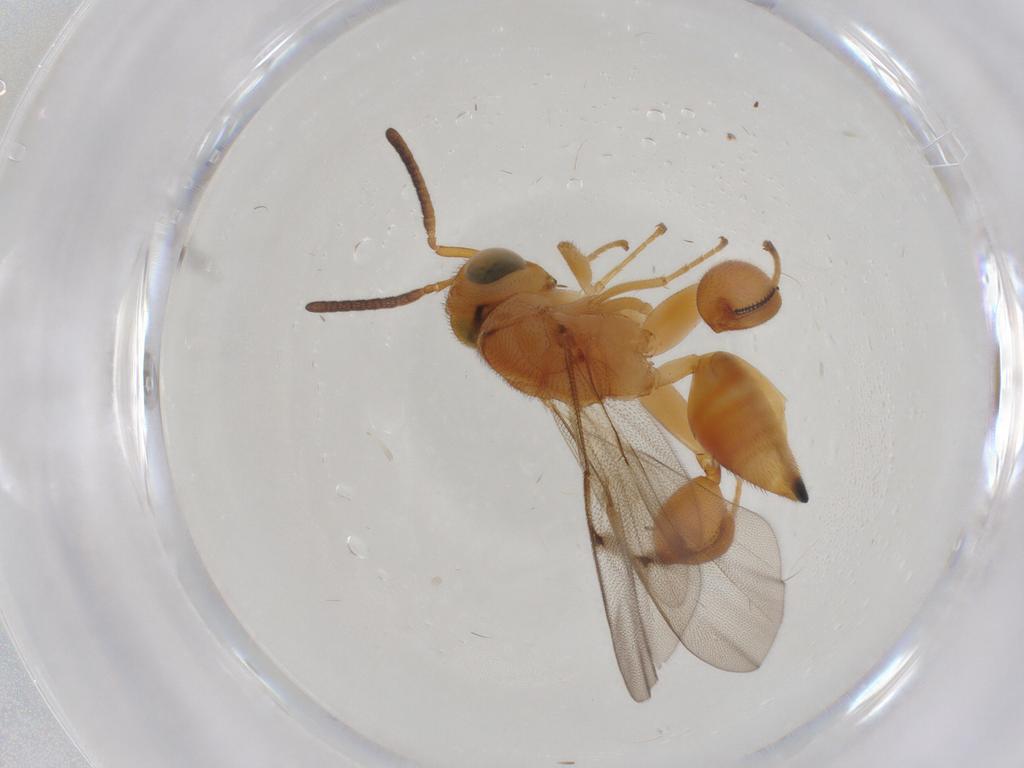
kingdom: Animalia
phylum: Arthropoda
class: Insecta
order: Hymenoptera
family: Chalcididae
